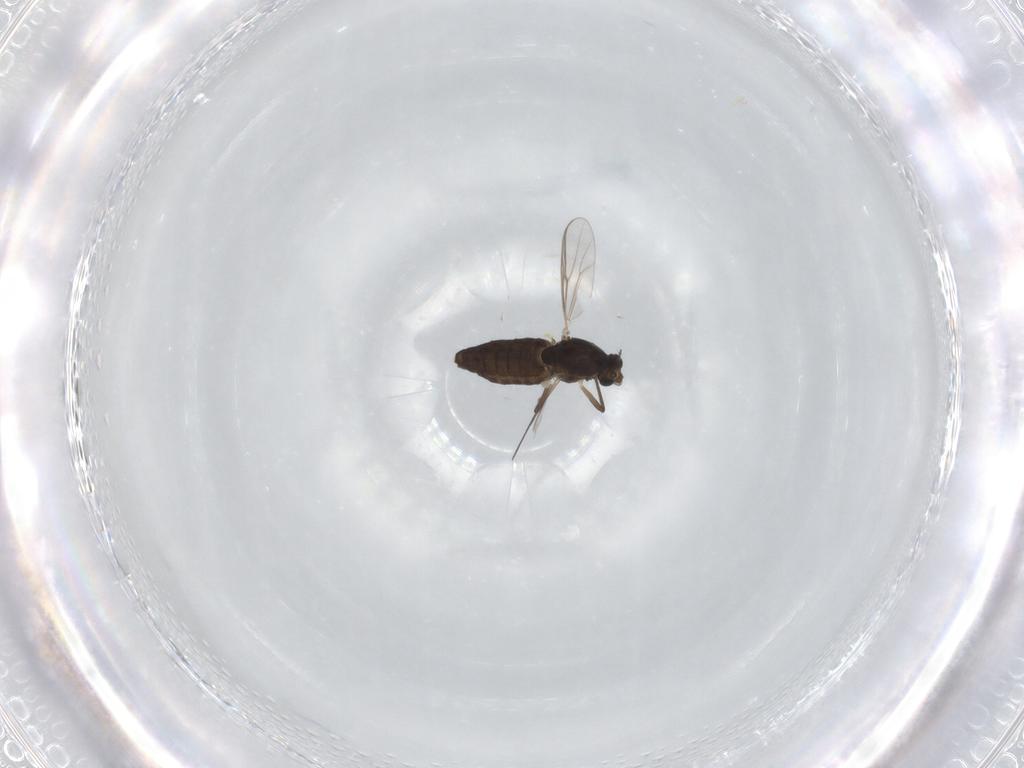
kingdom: Animalia
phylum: Arthropoda
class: Insecta
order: Diptera
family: Chironomidae
